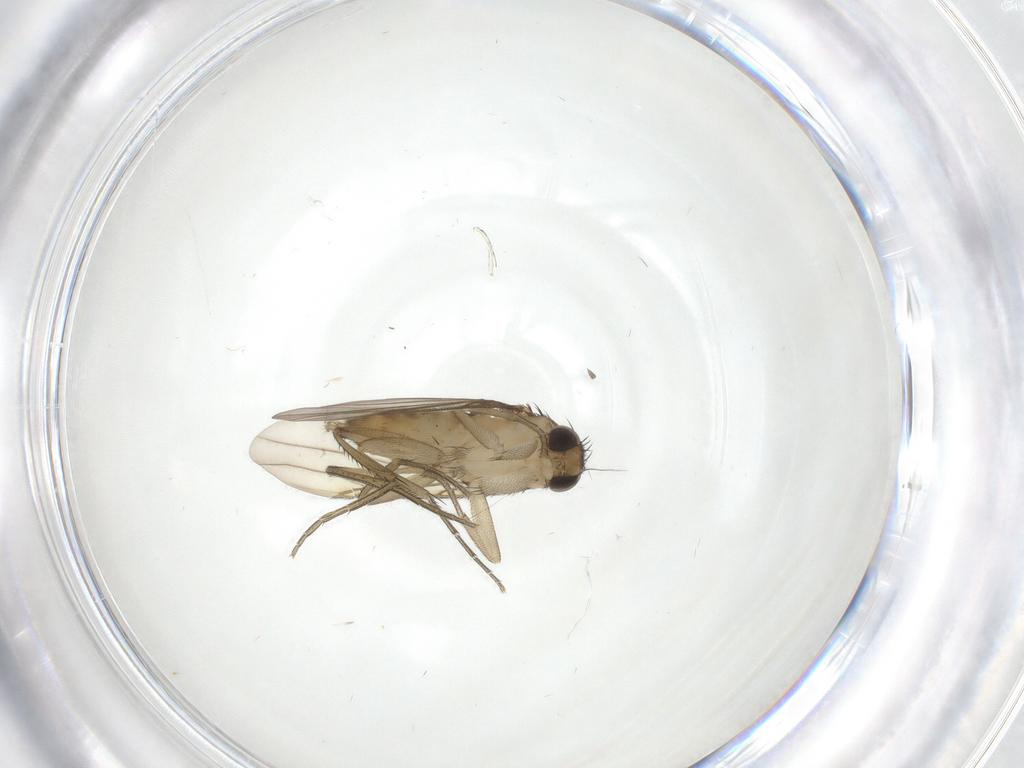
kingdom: Animalia
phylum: Arthropoda
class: Insecta
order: Diptera
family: Phoridae
